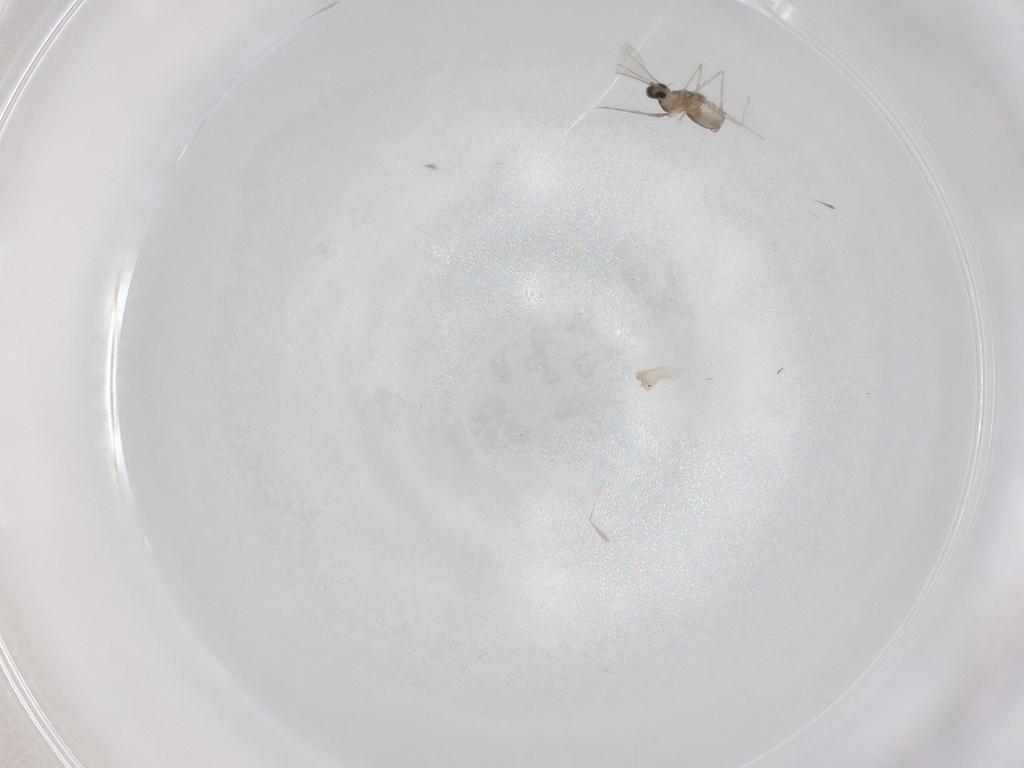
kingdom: Animalia
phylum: Arthropoda
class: Insecta
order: Diptera
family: Cecidomyiidae
